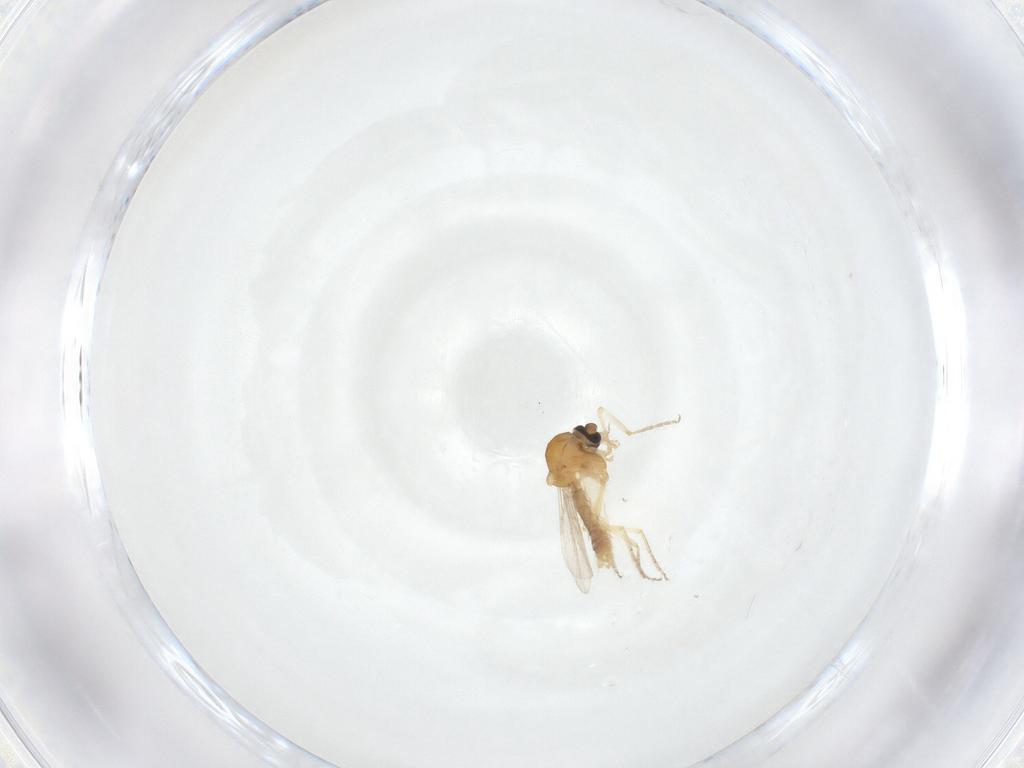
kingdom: Animalia
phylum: Arthropoda
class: Insecta
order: Diptera
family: Ceratopogonidae
